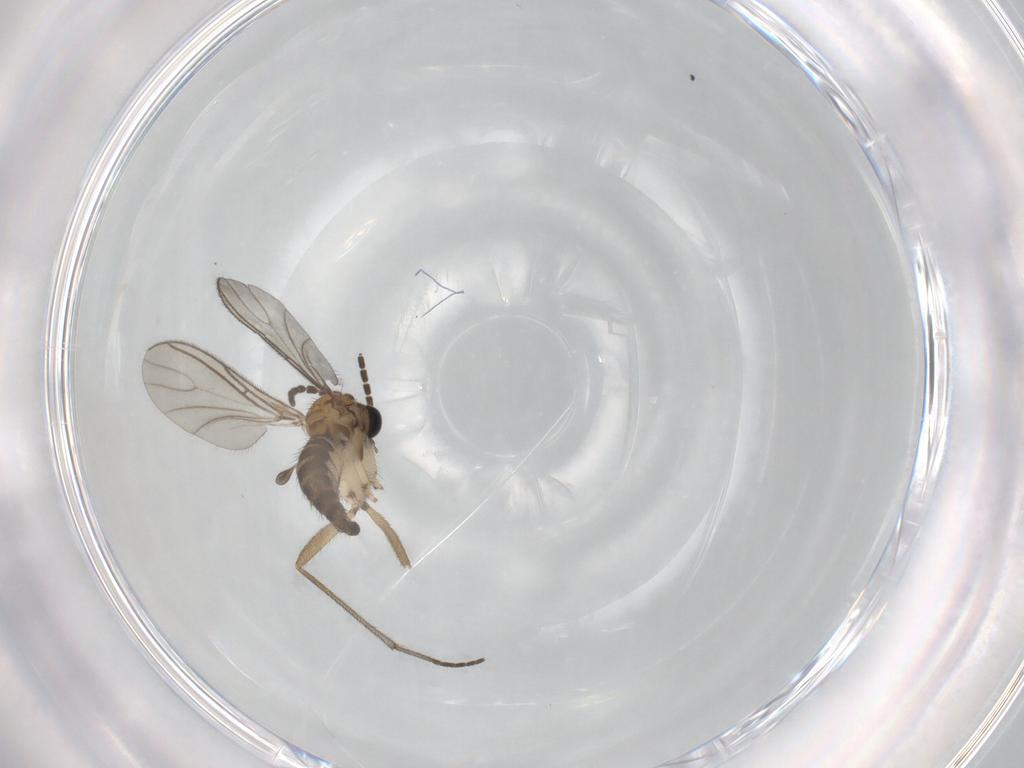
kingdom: Animalia
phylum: Arthropoda
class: Insecta
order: Diptera
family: Sciaridae
